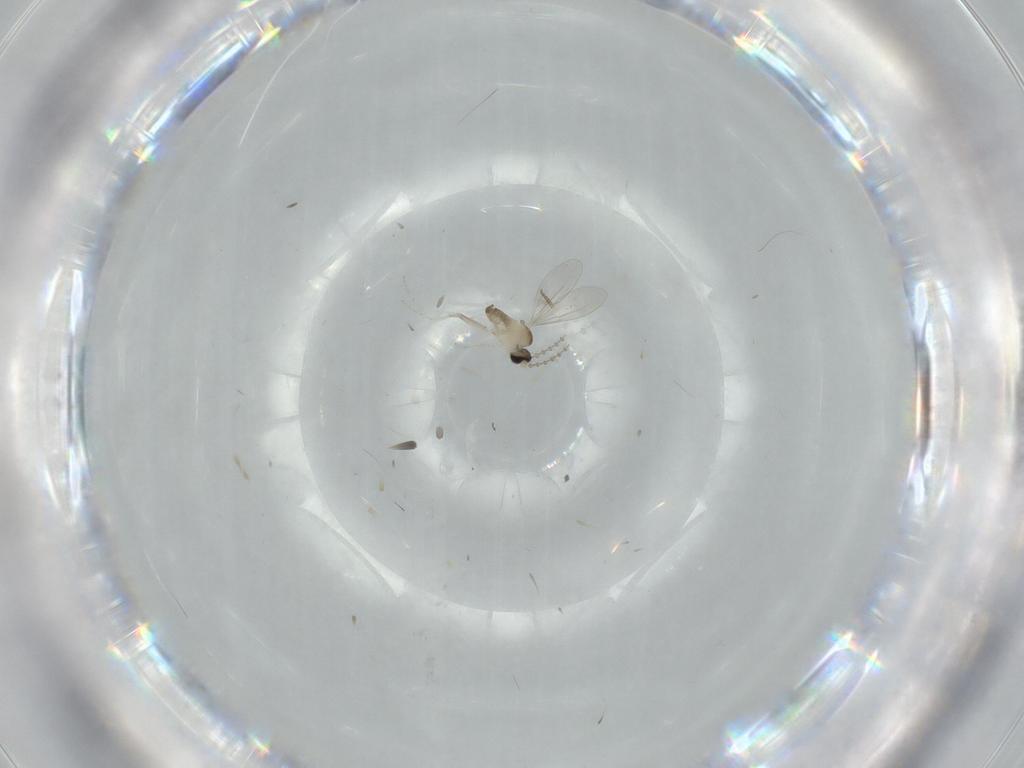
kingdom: Animalia
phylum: Arthropoda
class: Insecta
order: Diptera
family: Cecidomyiidae
